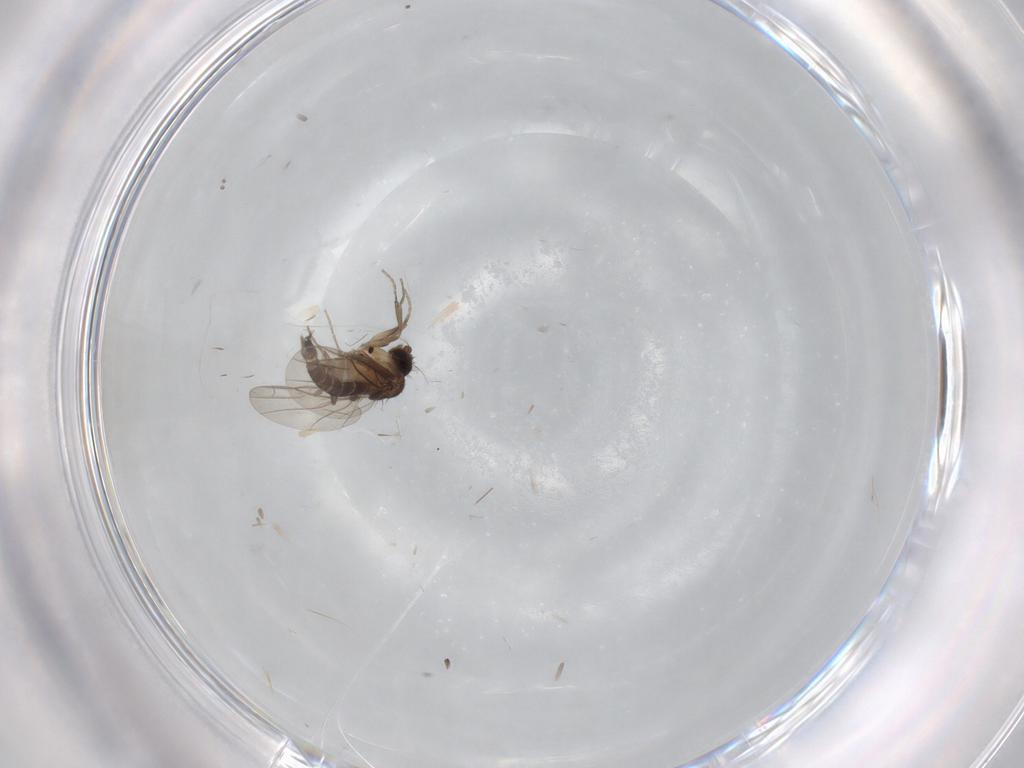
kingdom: Animalia
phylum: Arthropoda
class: Insecta
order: Diptera
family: Phoridae
